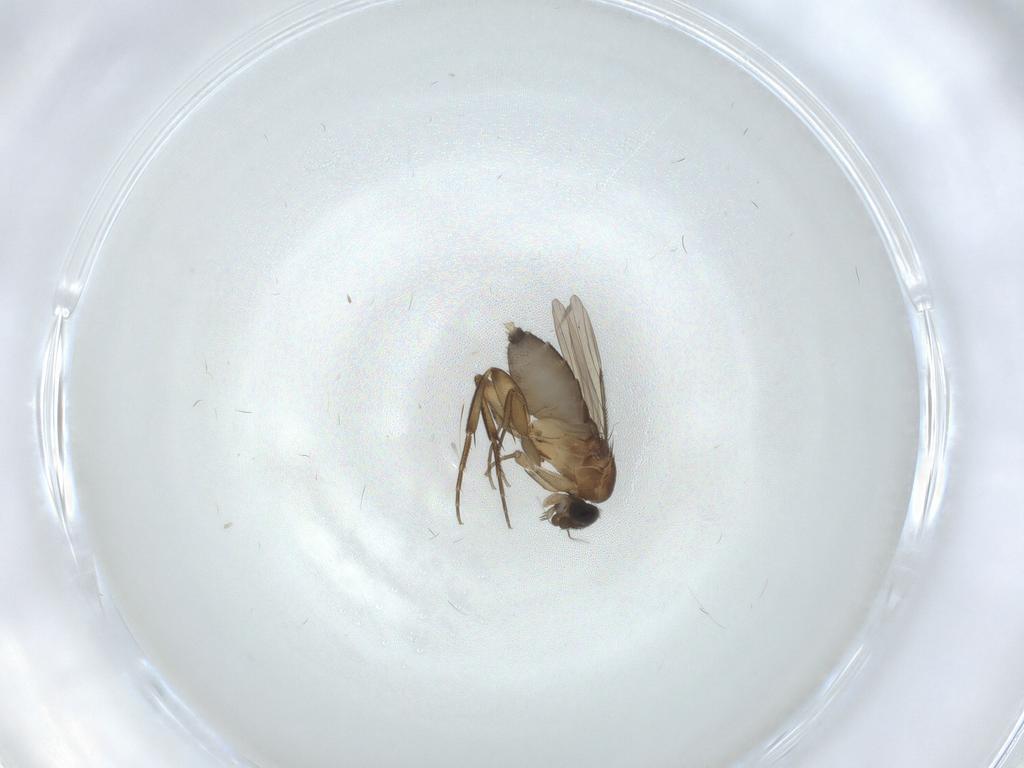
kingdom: Animalia
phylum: Arthropoda
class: Insecta
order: Diptera
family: Phoridae
